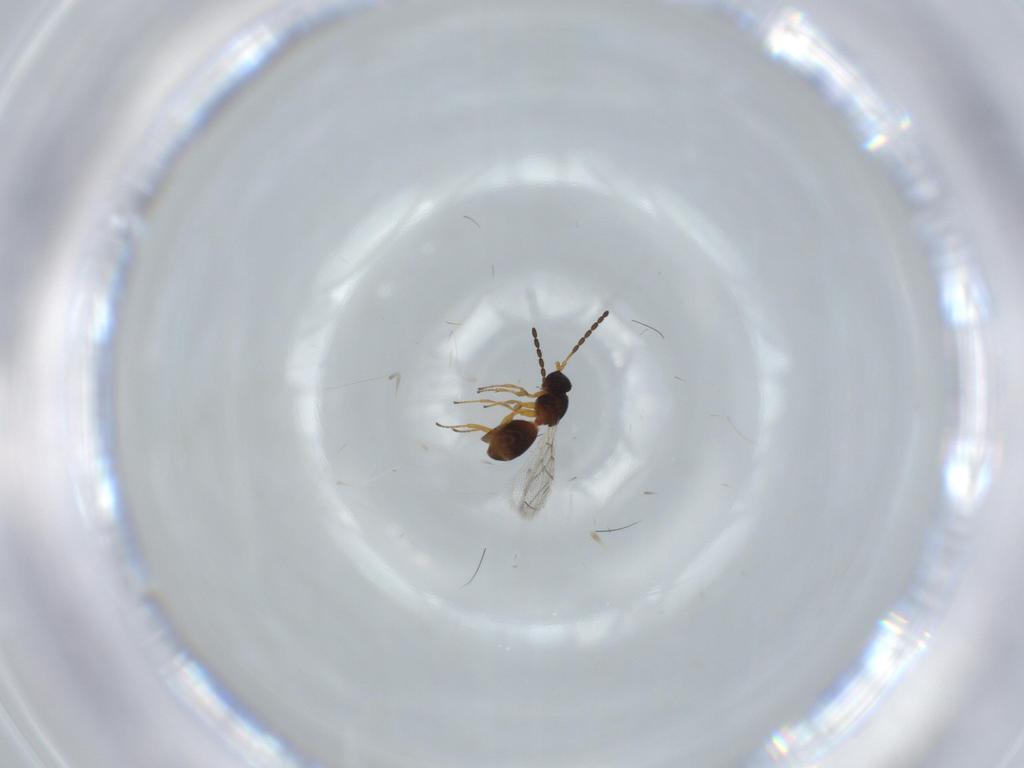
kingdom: Animalia
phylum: Arthropoda
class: Insecta
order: Hymenoptera
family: Figitidae
